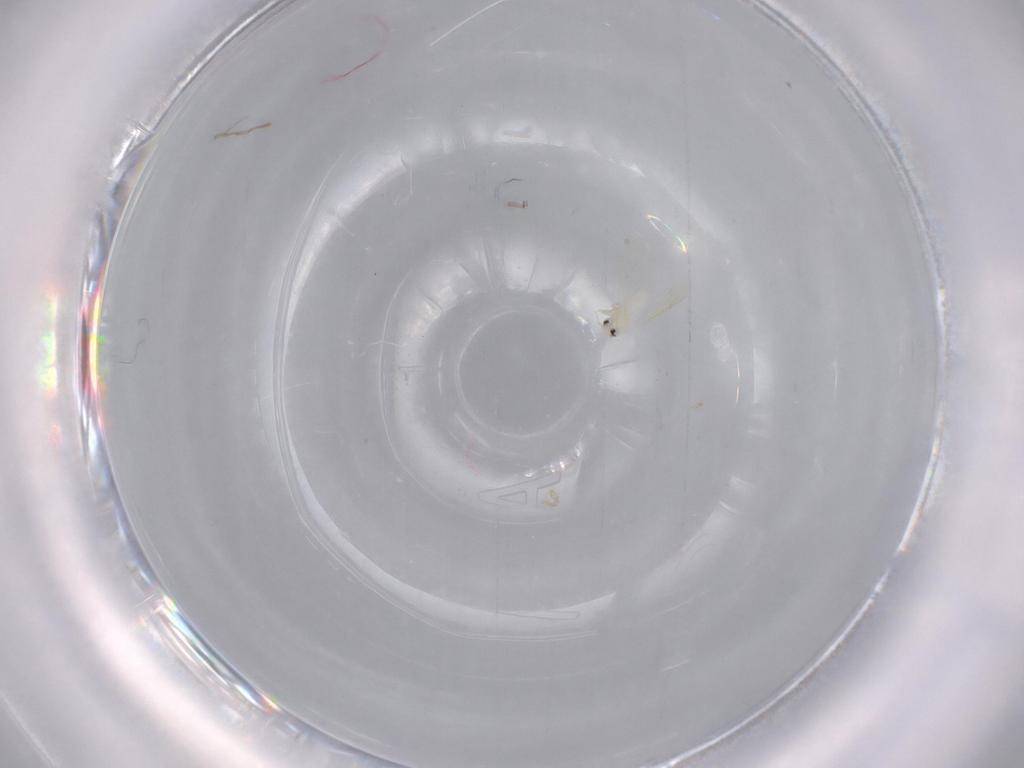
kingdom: Animalia
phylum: Arthropoda
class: Insecta
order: Hemiptera
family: Aleyrodidae
